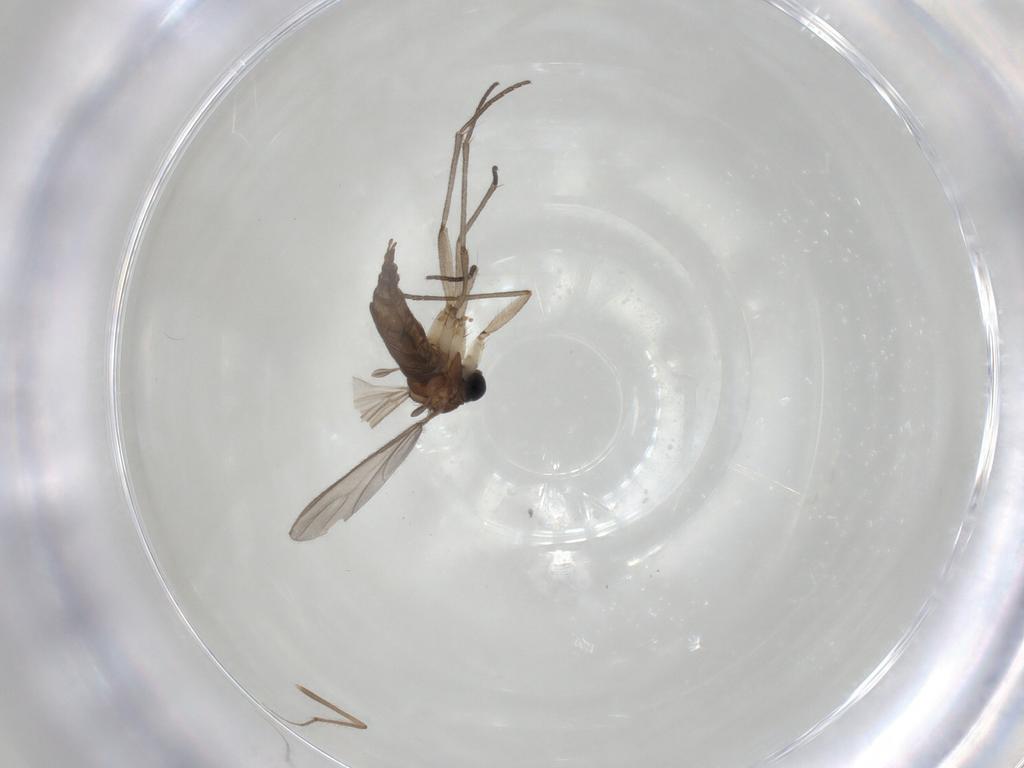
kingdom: Animalia
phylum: Arthropoda
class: Insecta
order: Diptera
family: Sciaridae
